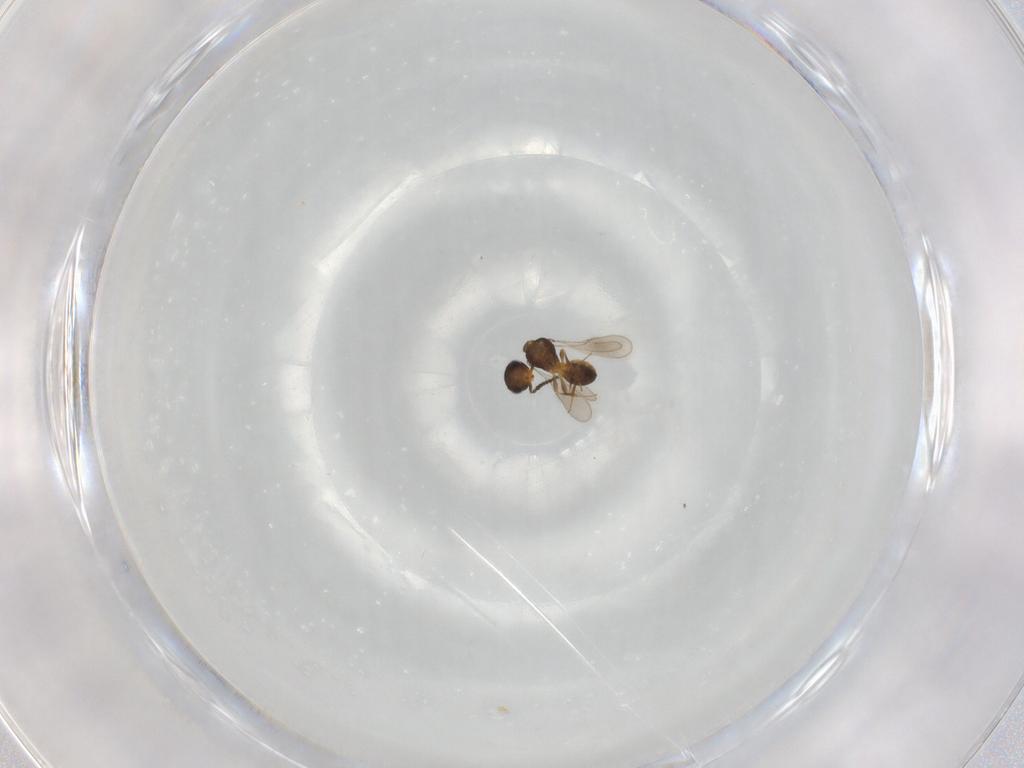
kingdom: Animalia
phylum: Arthropoda
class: Insecta
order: Hymenoptera
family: Scelionidae
